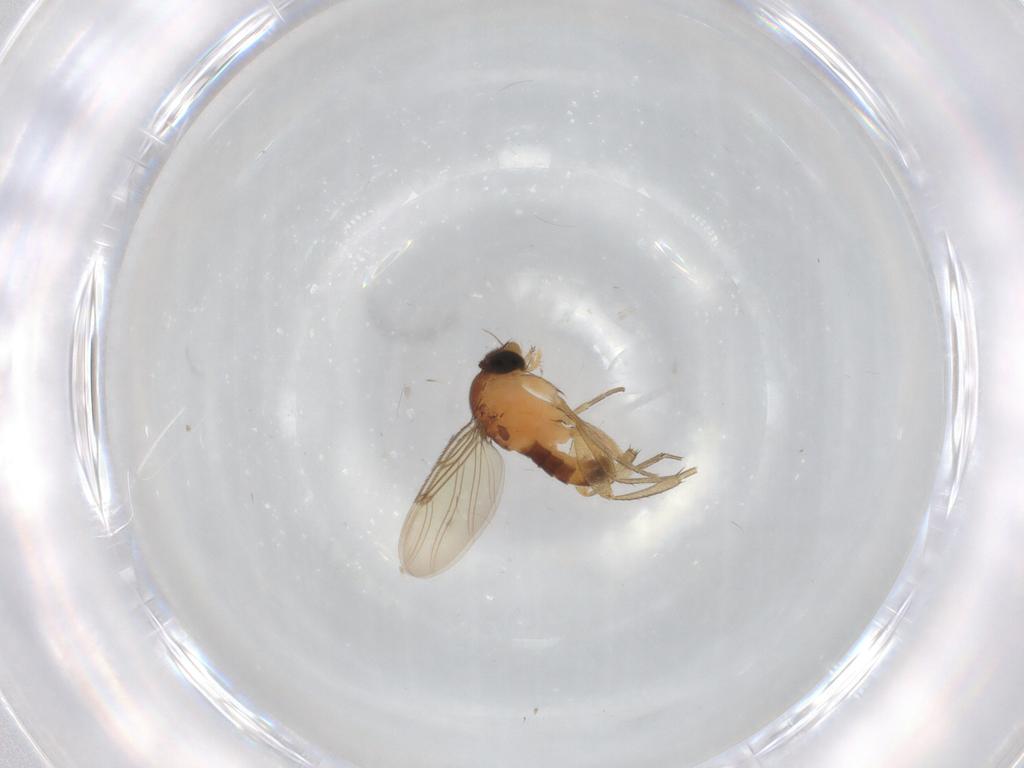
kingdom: Animalia
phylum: Arthropoda
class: Insecta
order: Diptera
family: Chironomidae
